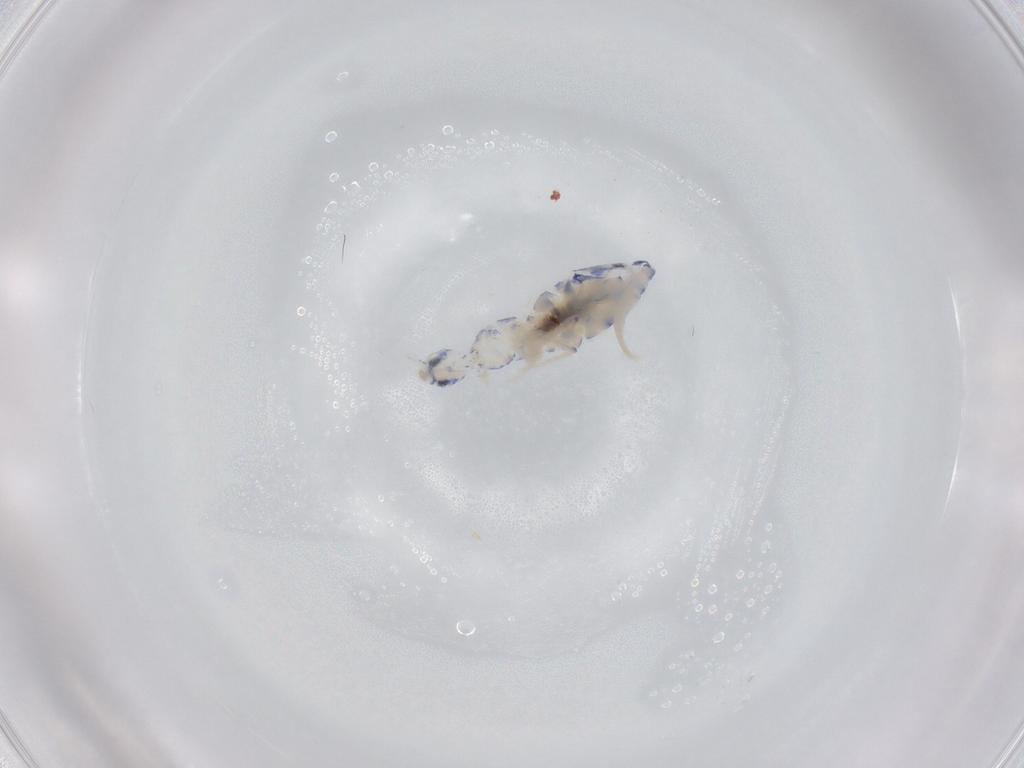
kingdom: Animalia
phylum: Arthropoda
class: Collembola
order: Entomobryomorpha
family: Entomobryidae
